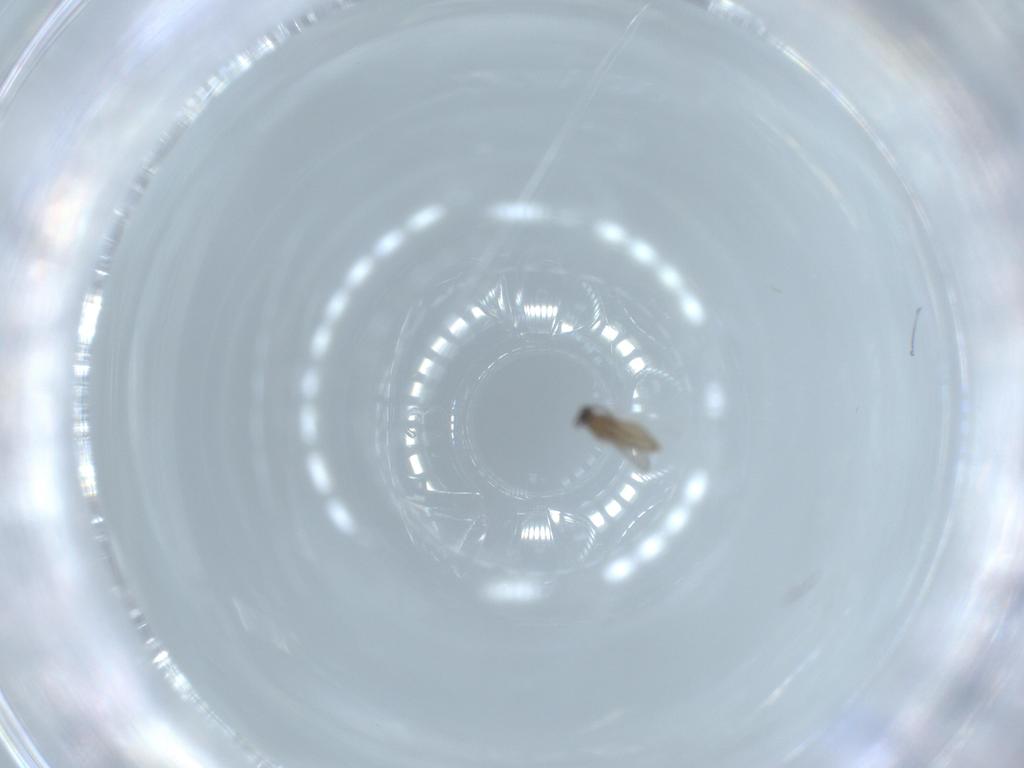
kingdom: Animalia
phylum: Arthropoda
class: Insecta
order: Diptera
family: Cecidomyiidae
